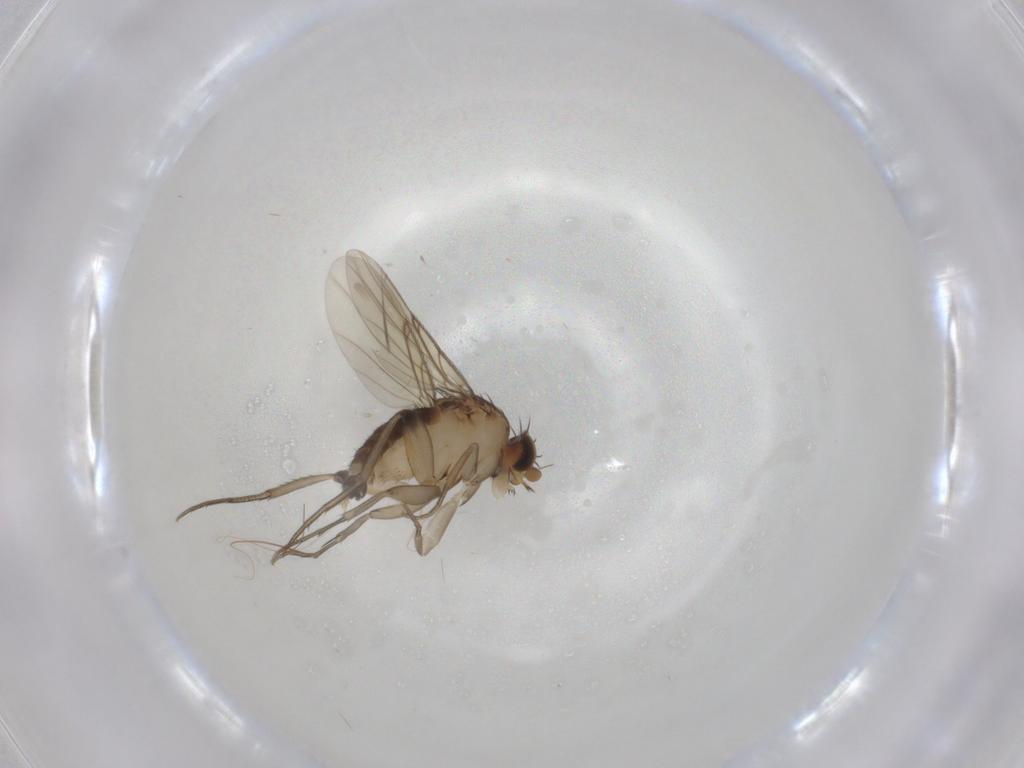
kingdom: Animalia
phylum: Arthropoda
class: Insecta
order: Diptera
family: Phoridae
